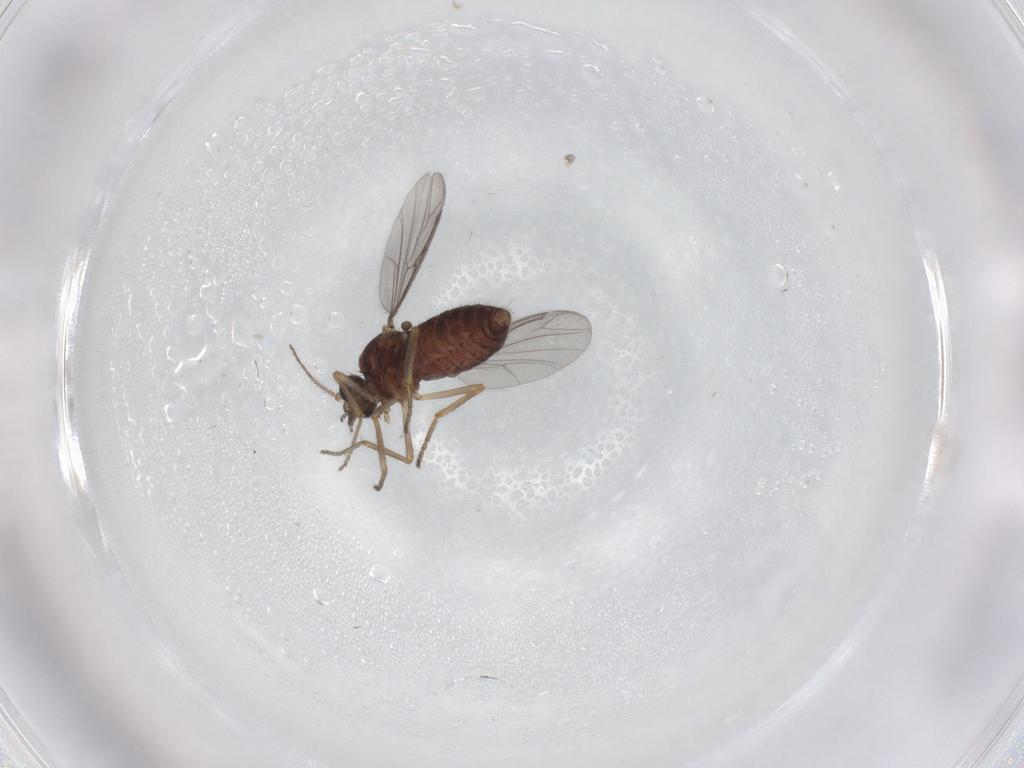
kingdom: Animalia
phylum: Arthropoda
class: Insecta
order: Diptera
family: Ceratopogonidae
